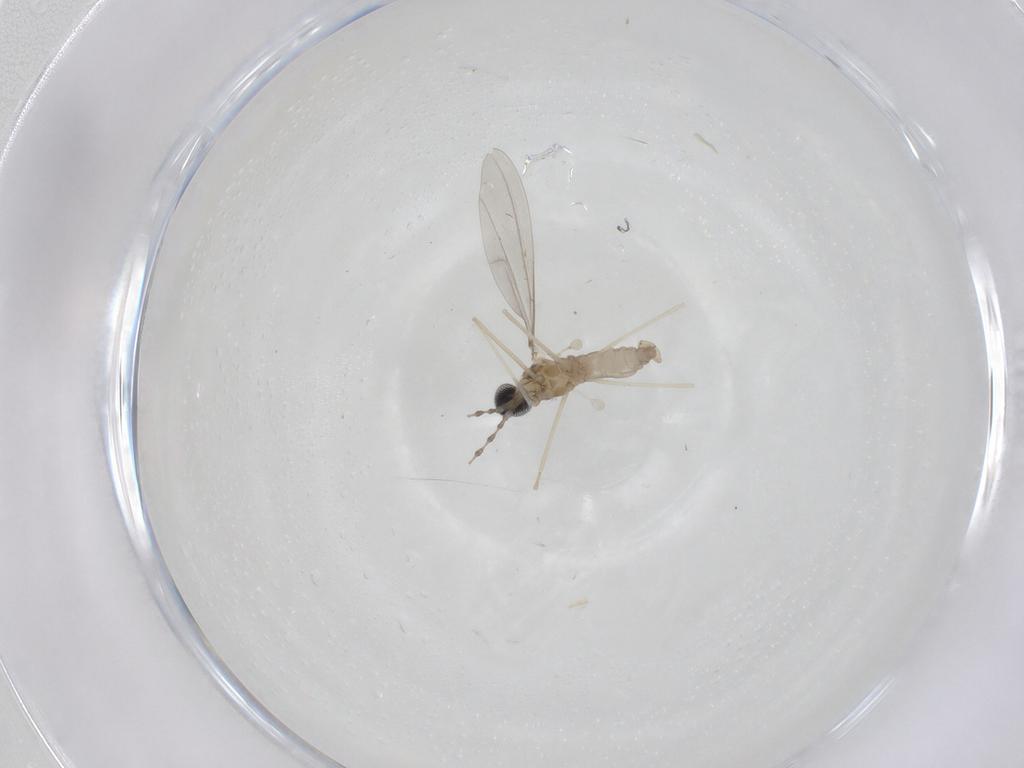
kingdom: Animalia
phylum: Arthropoda
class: Insecta
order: Diptera
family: Cecidomyiidae
